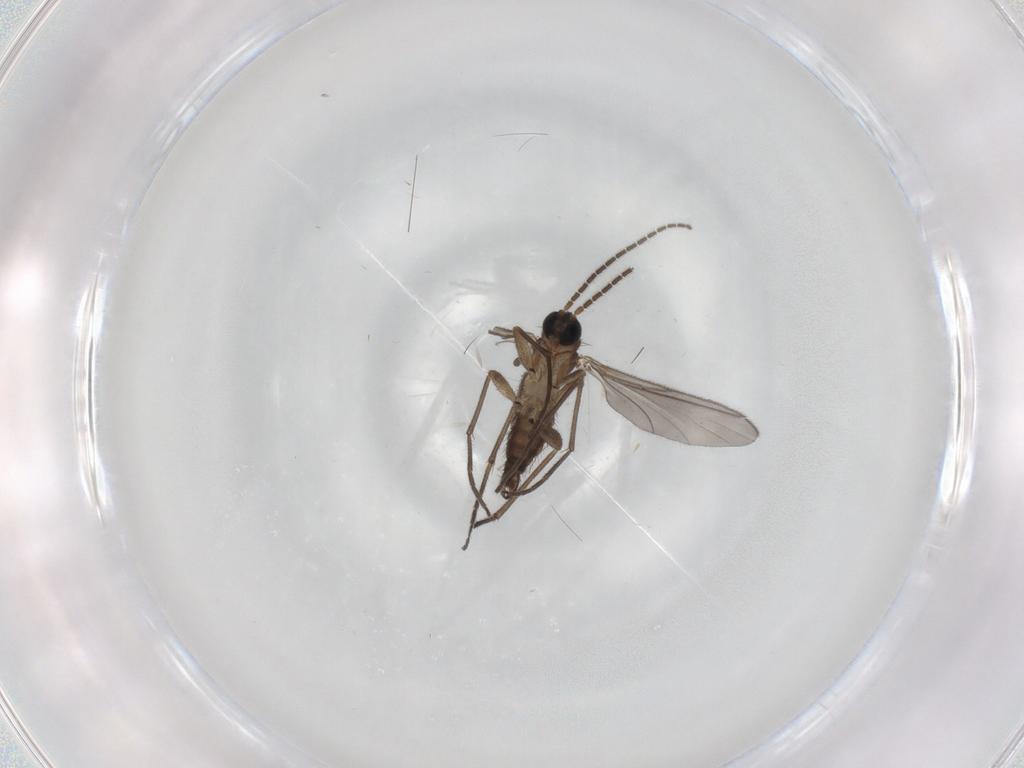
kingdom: Animalia
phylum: Arthropoda
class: Insecta
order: Diptera
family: Sciaridae
